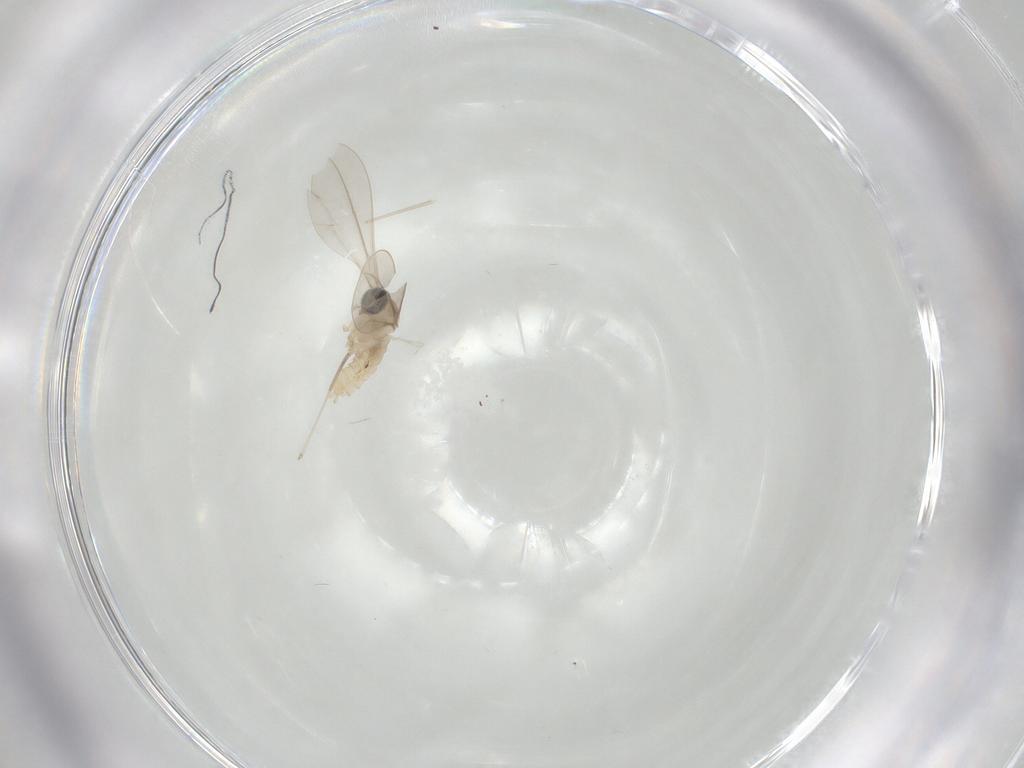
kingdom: Animalia
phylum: Arthropoda
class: Insecta
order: Diptera
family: Cecidomyiidae
